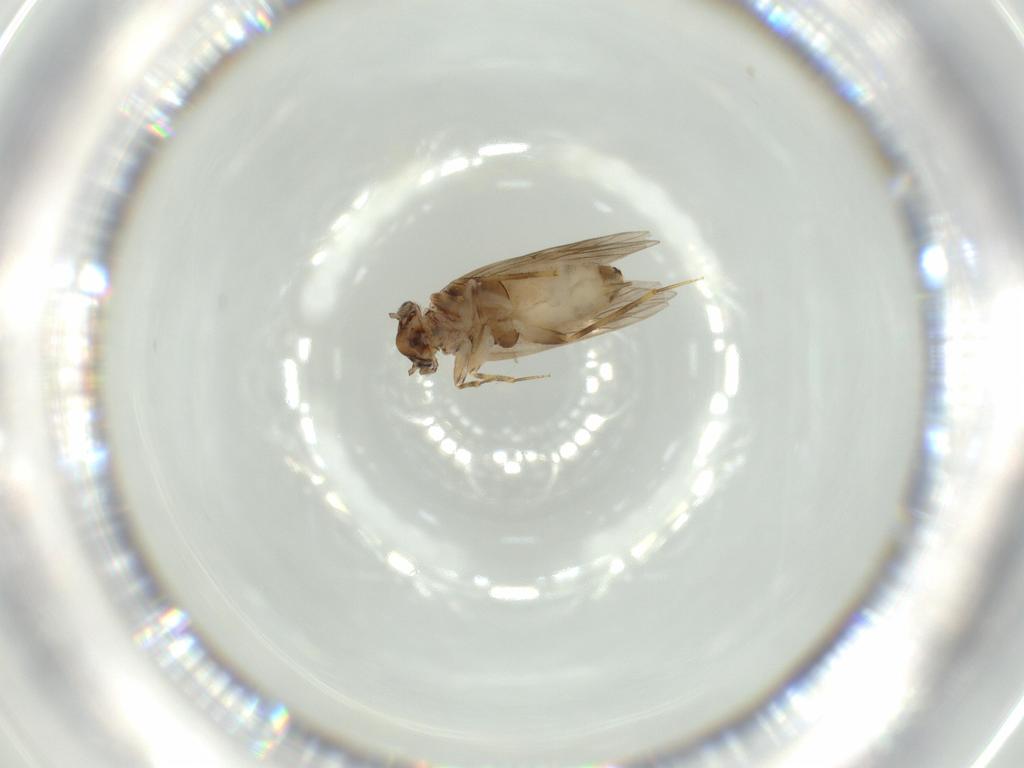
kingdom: Animalia
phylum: Arthropoda
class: Insecta
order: Psocodea
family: Lepidopsocidae
